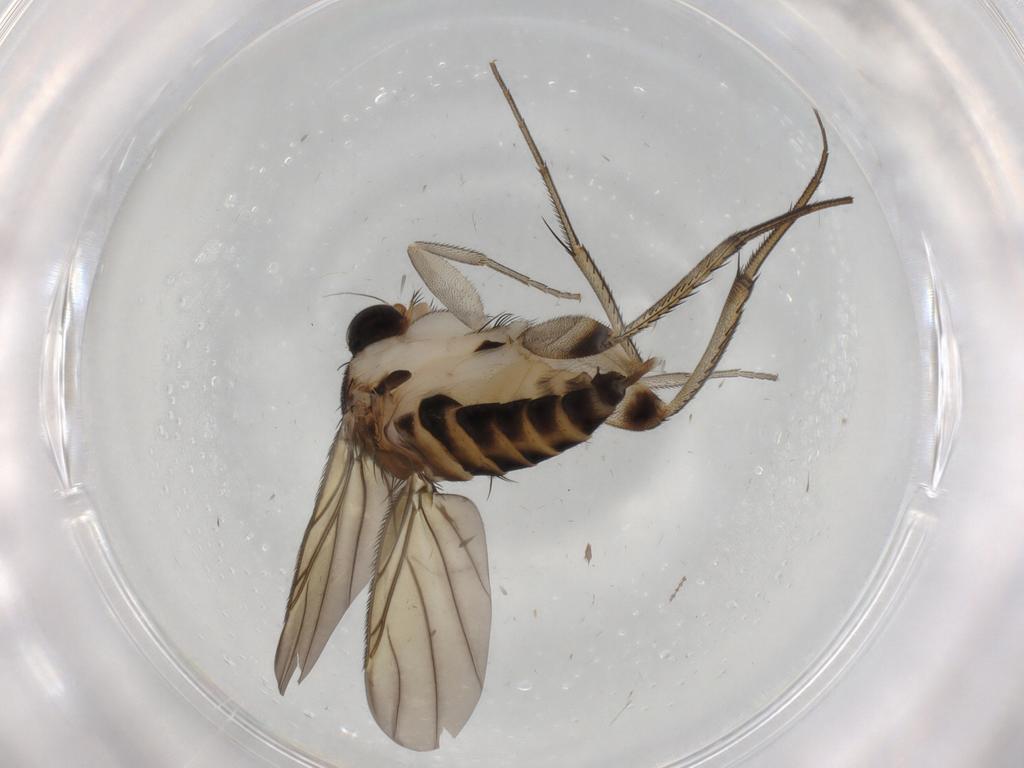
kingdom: Animalia
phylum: Arthropoda
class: Insecta
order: Diptera
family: Phoridae
